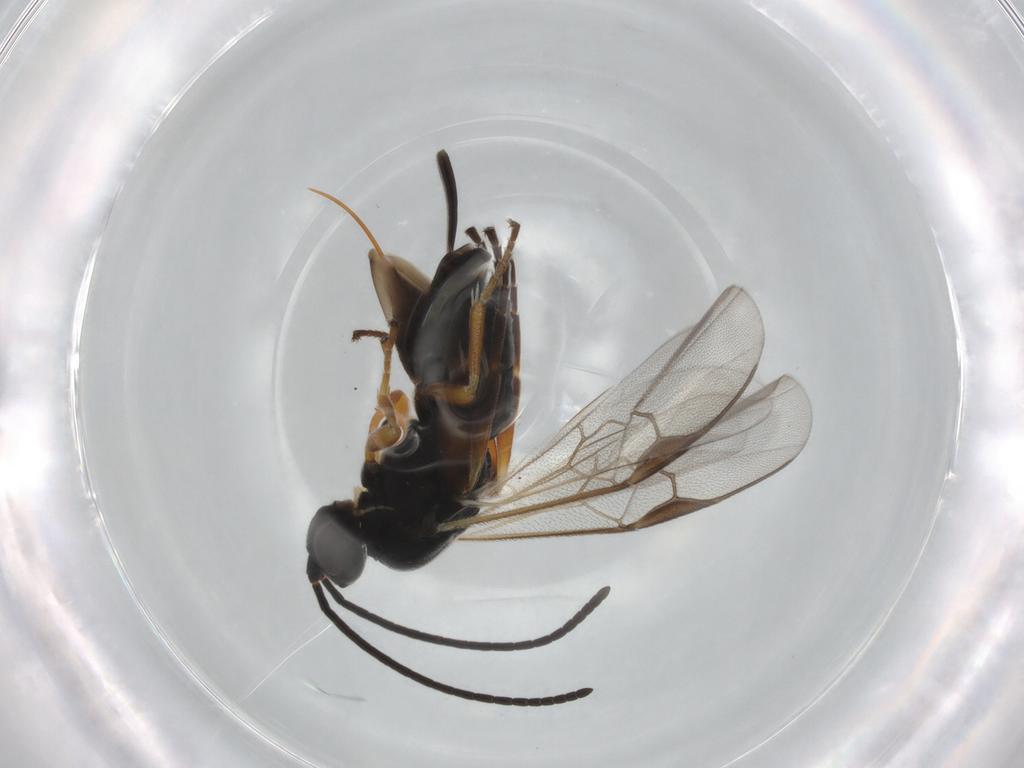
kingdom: Animalia
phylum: Arthropoda
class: Insecta
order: Hymenoptera
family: Braconidae
